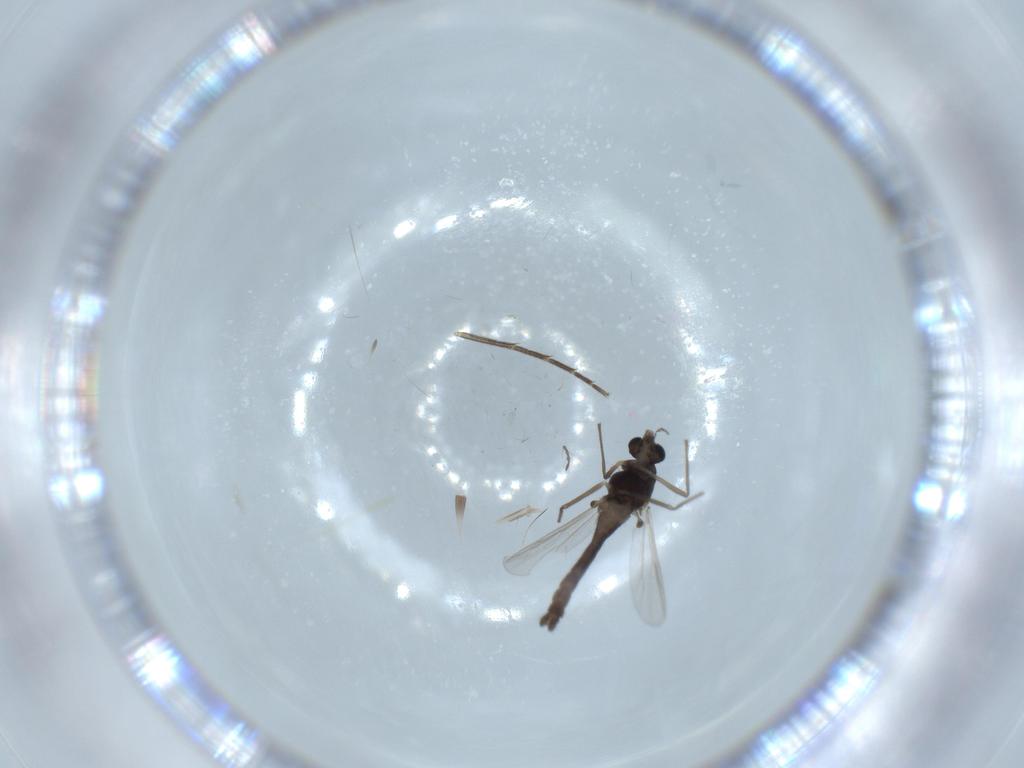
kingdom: Animalia
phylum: Arthropoda
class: Insecta
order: Diptera
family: Chironomidae
